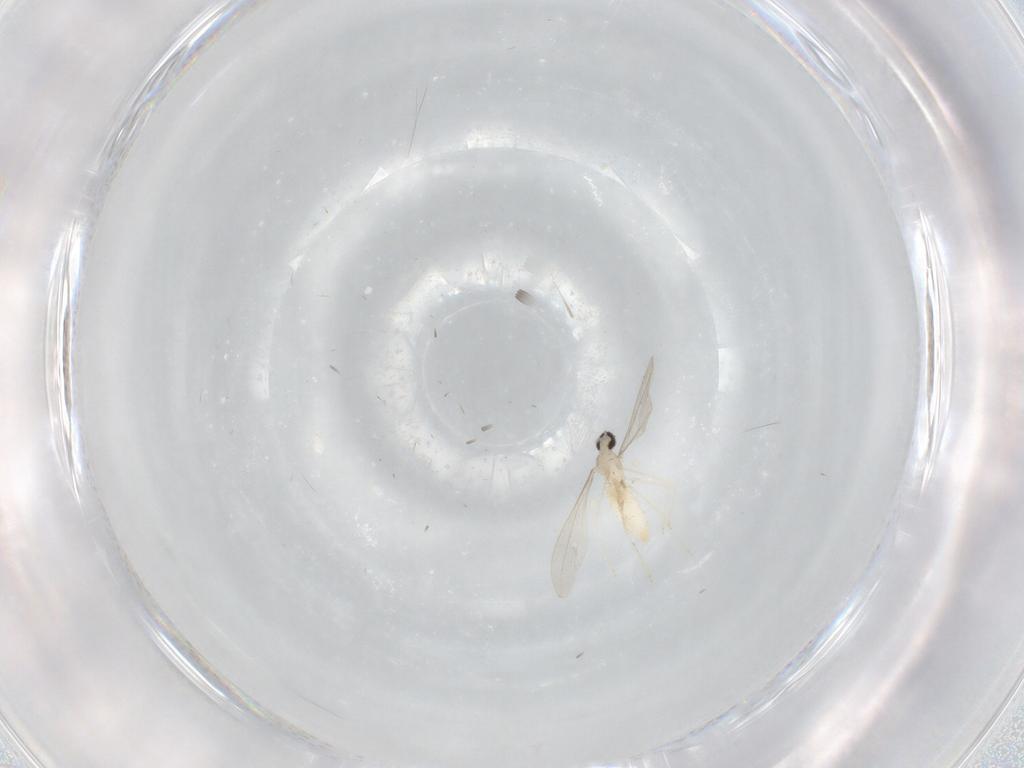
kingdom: Animalia
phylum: Arthropoda
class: Insecta
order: Diptera
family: Cecidomyiidae
